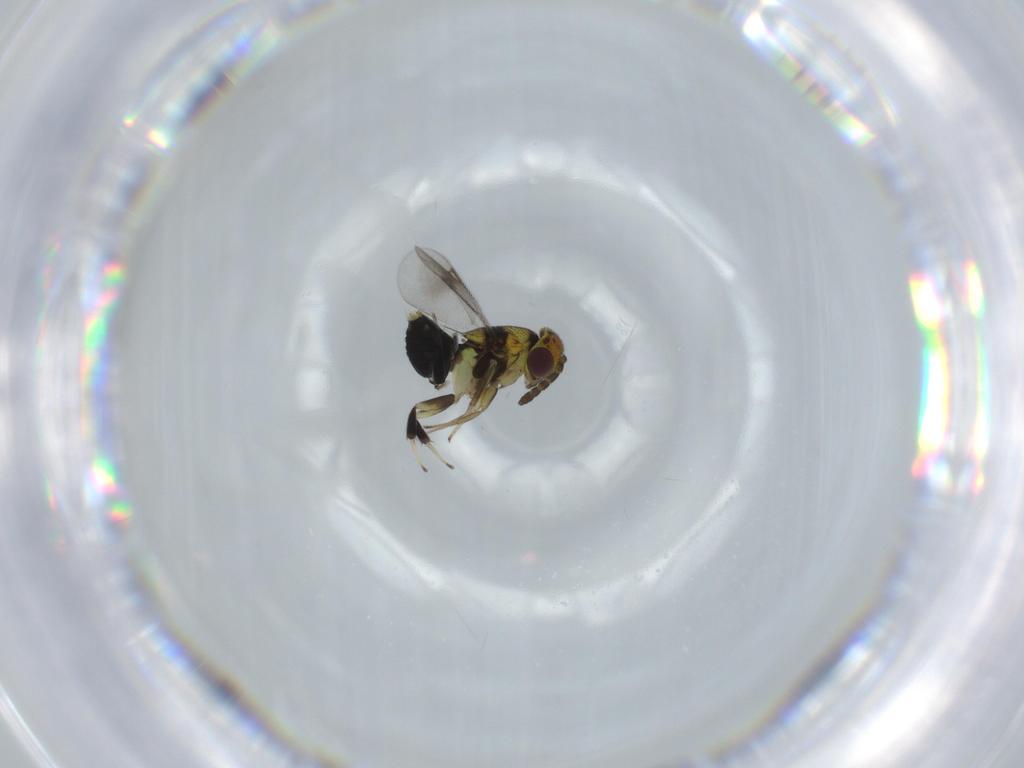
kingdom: Animalia
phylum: Arthropoda
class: Insecta
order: Hymenoptera
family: Aphelinidae
